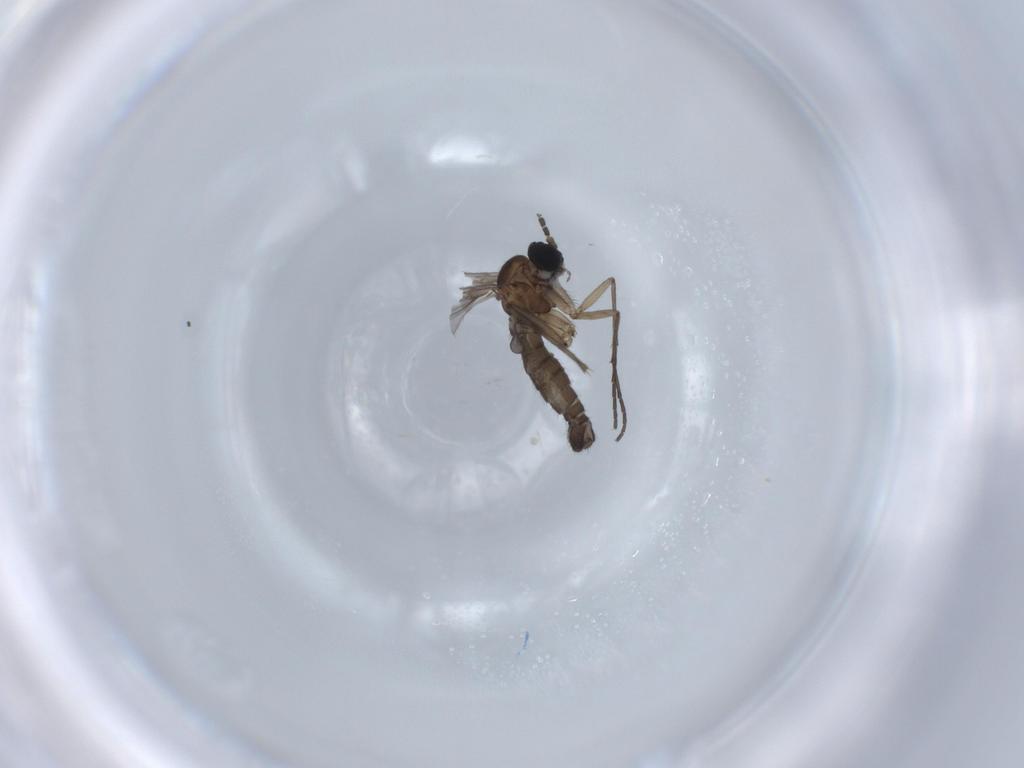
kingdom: Animalia
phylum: Arthropoda
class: Insecta
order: Diptera
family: Sciaridae
